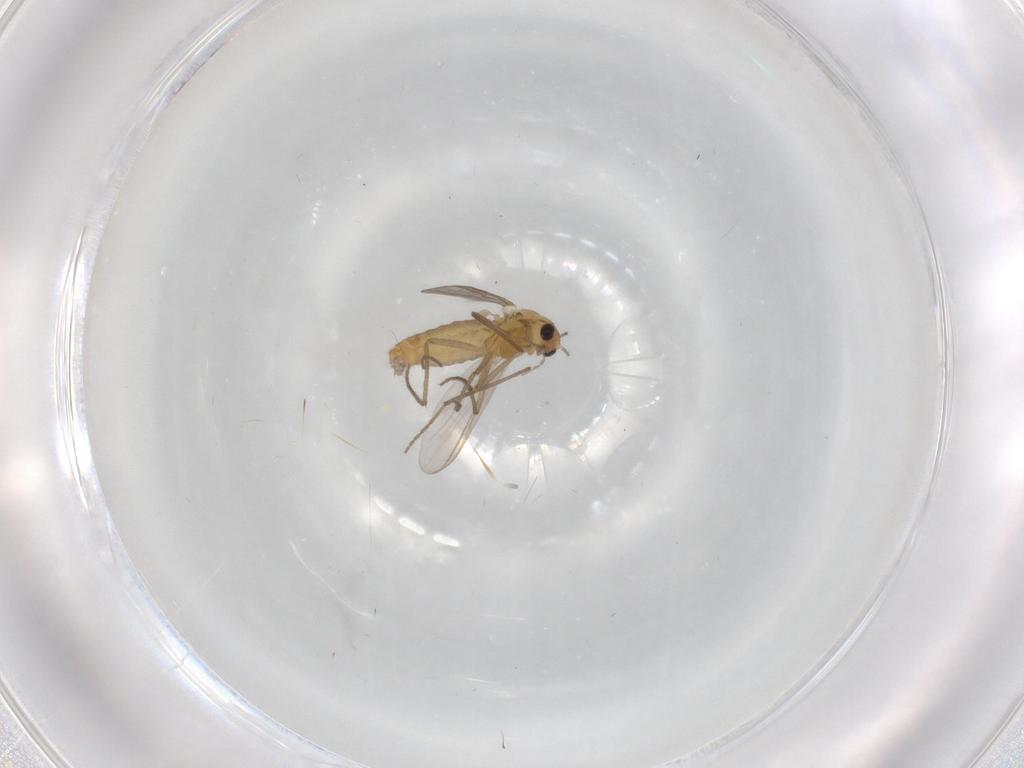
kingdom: Animalia
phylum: Arthropoda
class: Insecta
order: Diptera
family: Chironomidae
